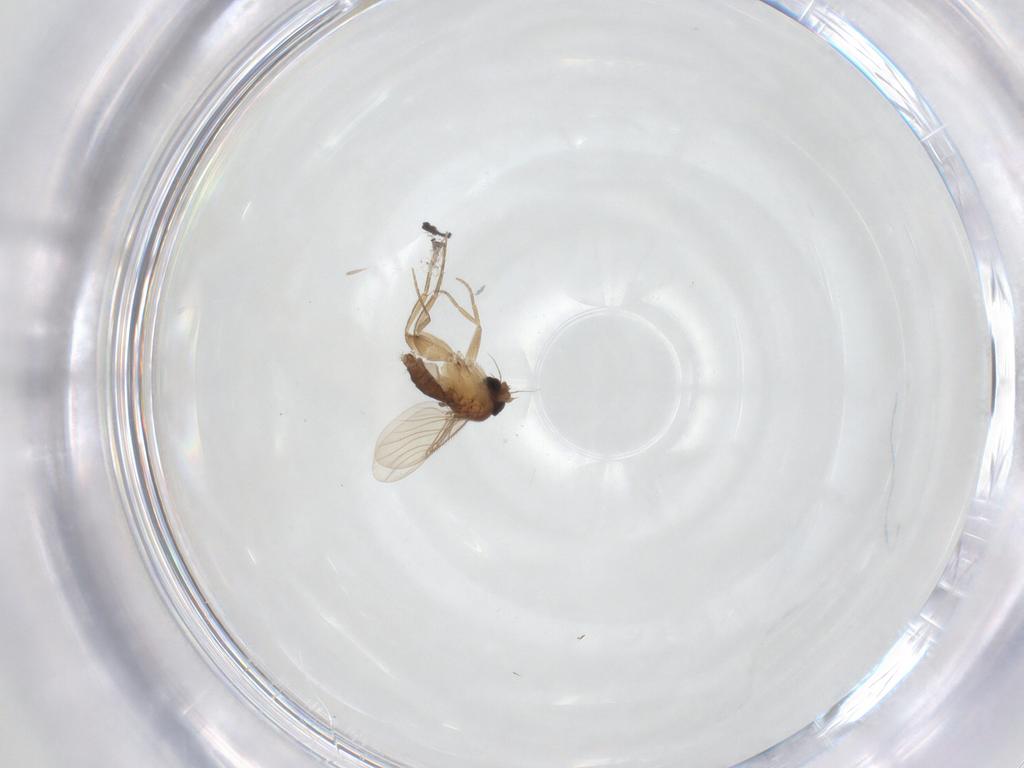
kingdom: Animalia
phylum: Arthropoda
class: Insecta
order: Diptera
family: Phoridae
